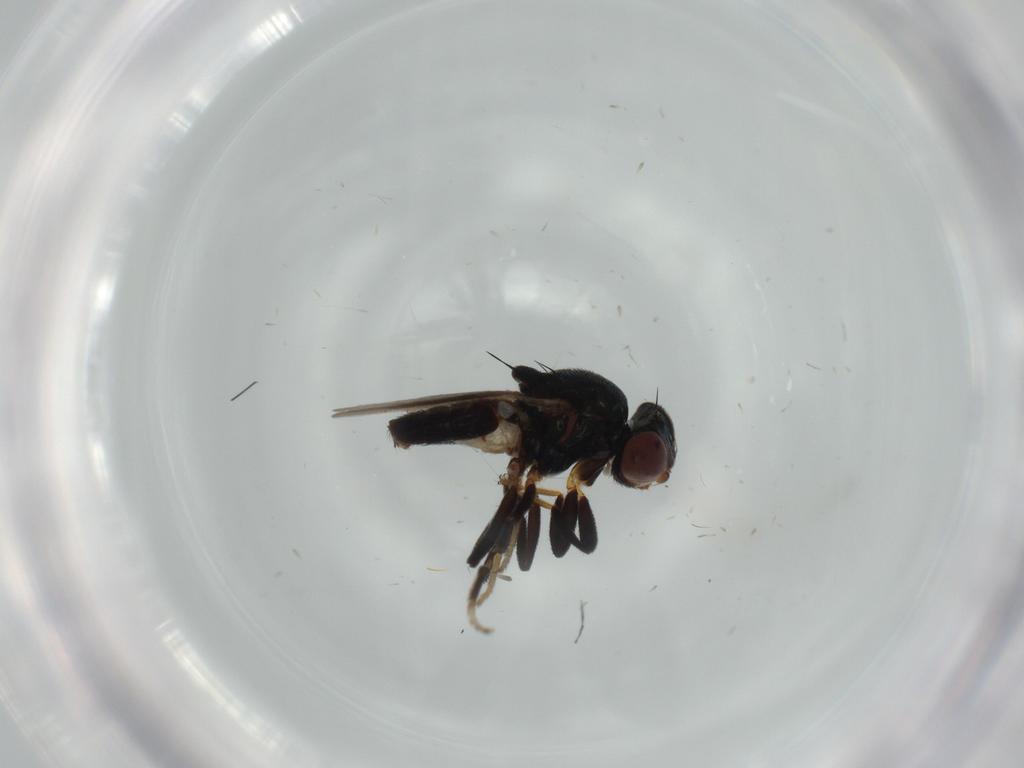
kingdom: Animalia
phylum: Arthropoda
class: Insecta
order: Diptera
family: Chloropidae
